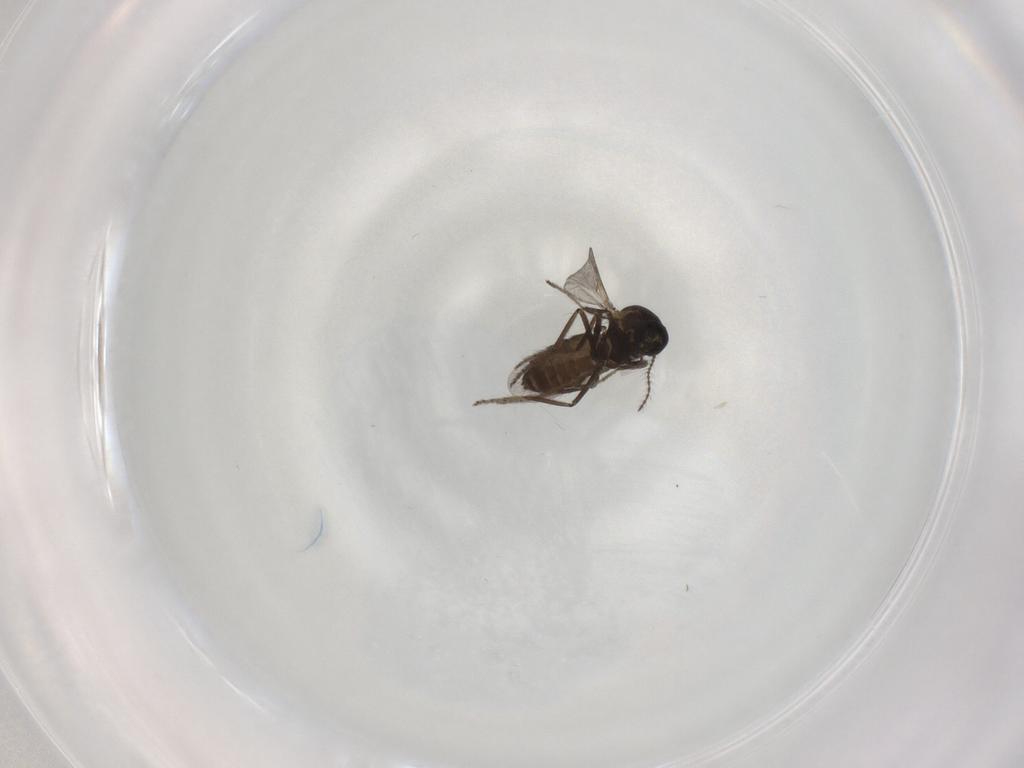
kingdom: Animalia
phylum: Arthropoda
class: Insecta
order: Diptera
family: Ceratopogonidae
